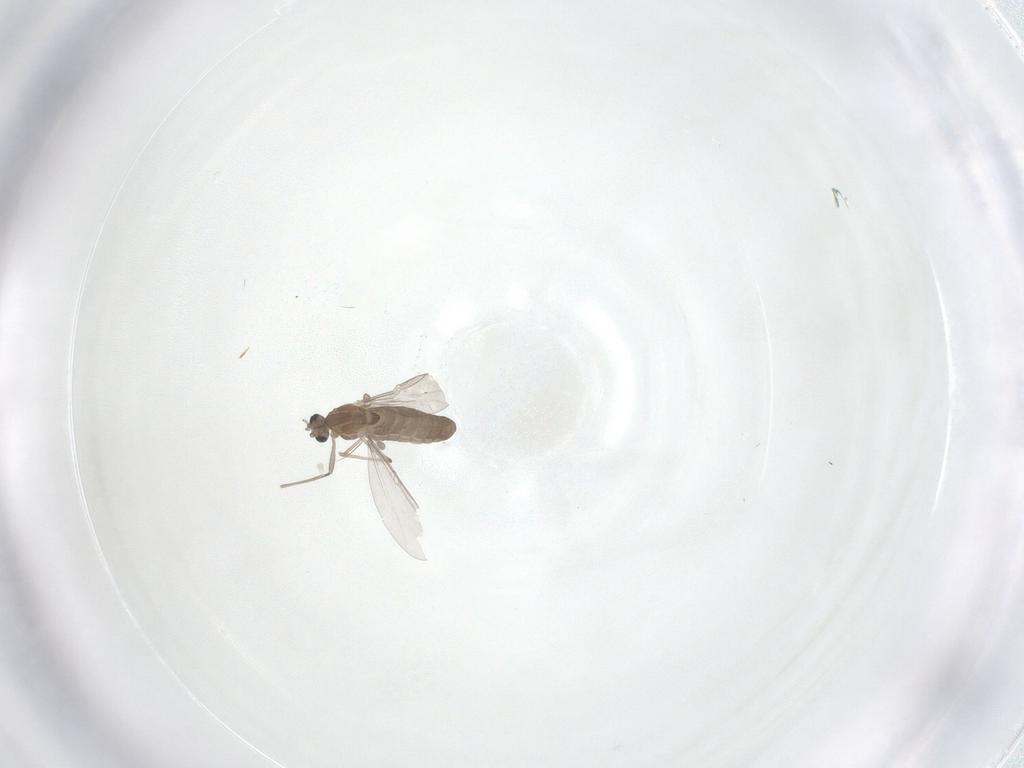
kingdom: Animalia
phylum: Arthropoda
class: Insecta
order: Diptera
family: Chironomidae
